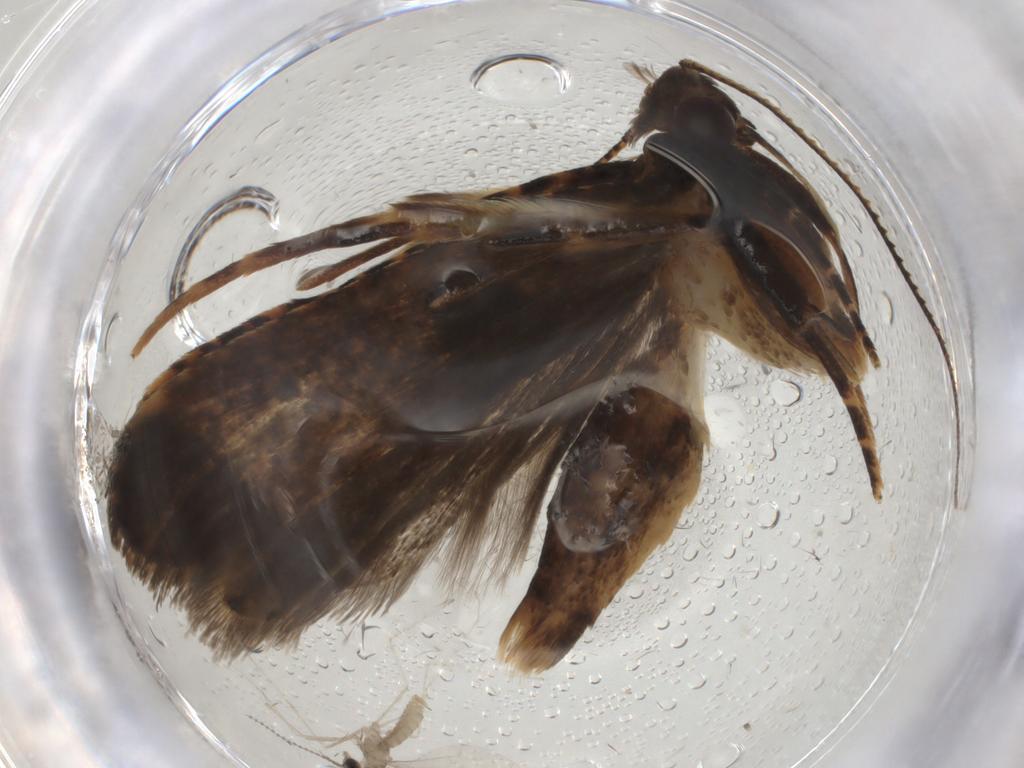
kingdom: Animalia
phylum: Arthropoda
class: Insecta
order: Lepidoptera
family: Gelechiidae
